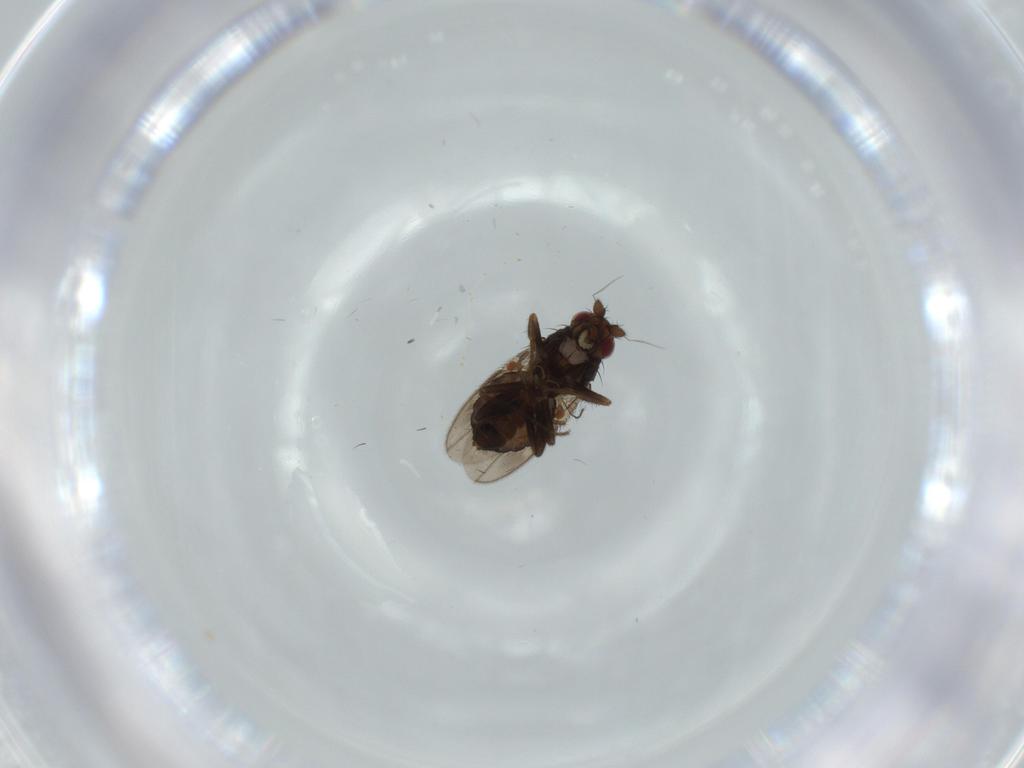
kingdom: Animalia
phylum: Arthropoda
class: Insecta
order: Diptera
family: Sphaeroceridae
